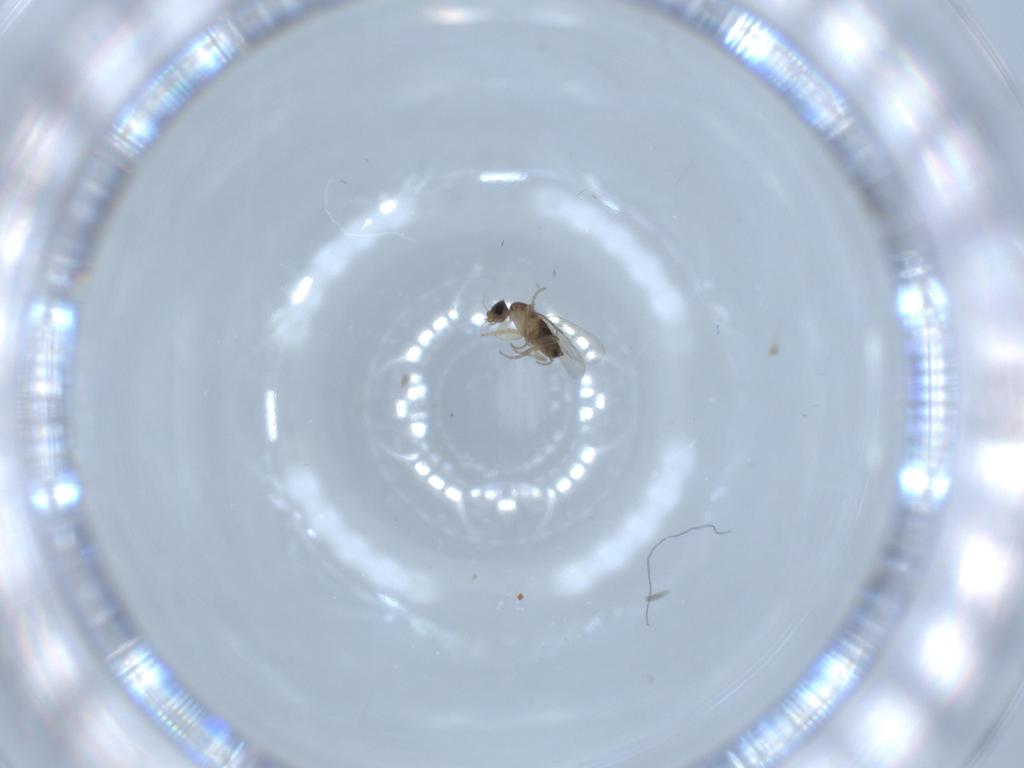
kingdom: Animalia
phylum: Arthropoda
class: Insecta
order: Diptera
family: Phoridae
